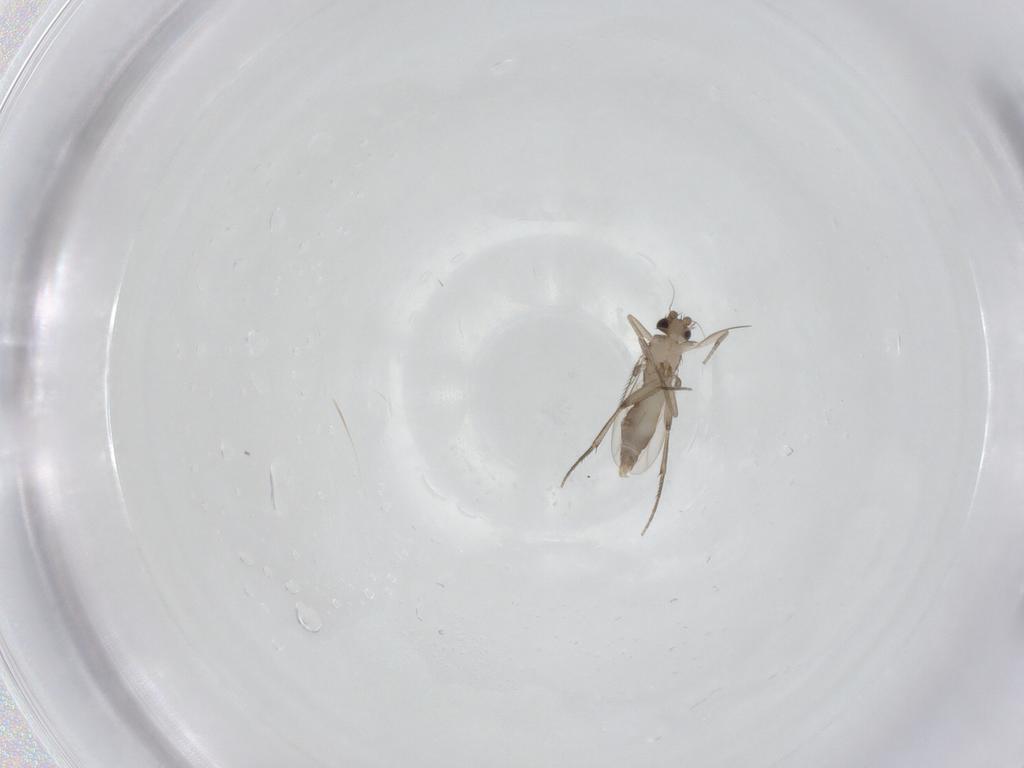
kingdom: Animalia
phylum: Arthropoda
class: Insecta
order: Diptera
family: Phoridae
